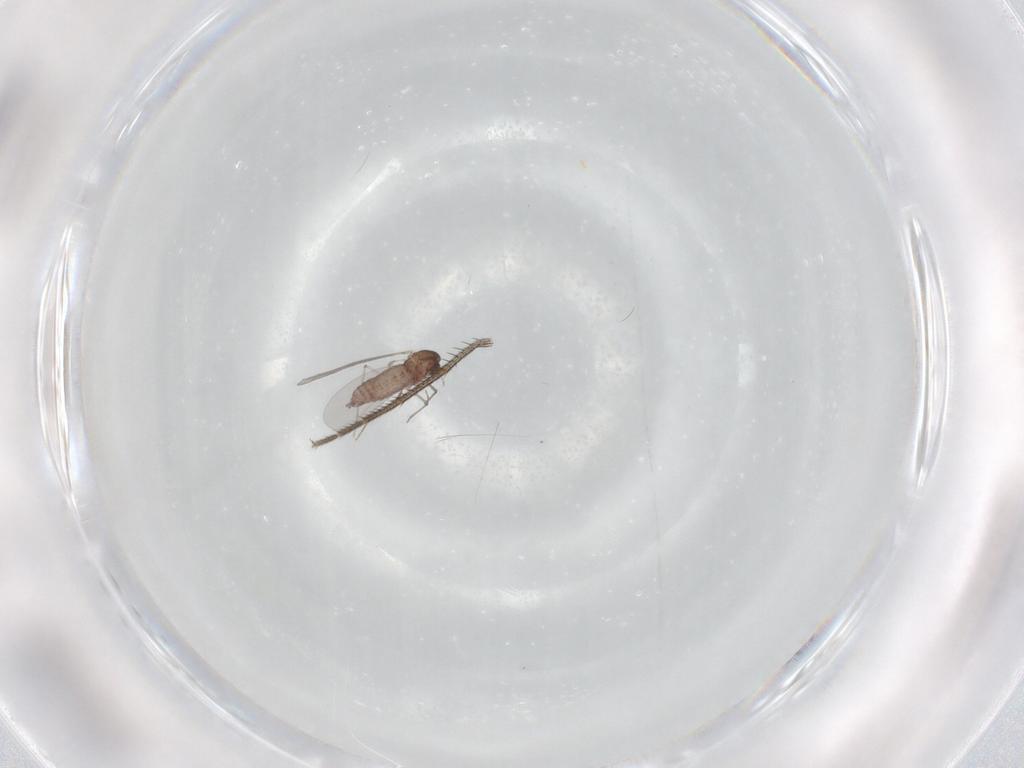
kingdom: Animalia
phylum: Arthropoda
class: Insecta
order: Diptera
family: Chironomidae
